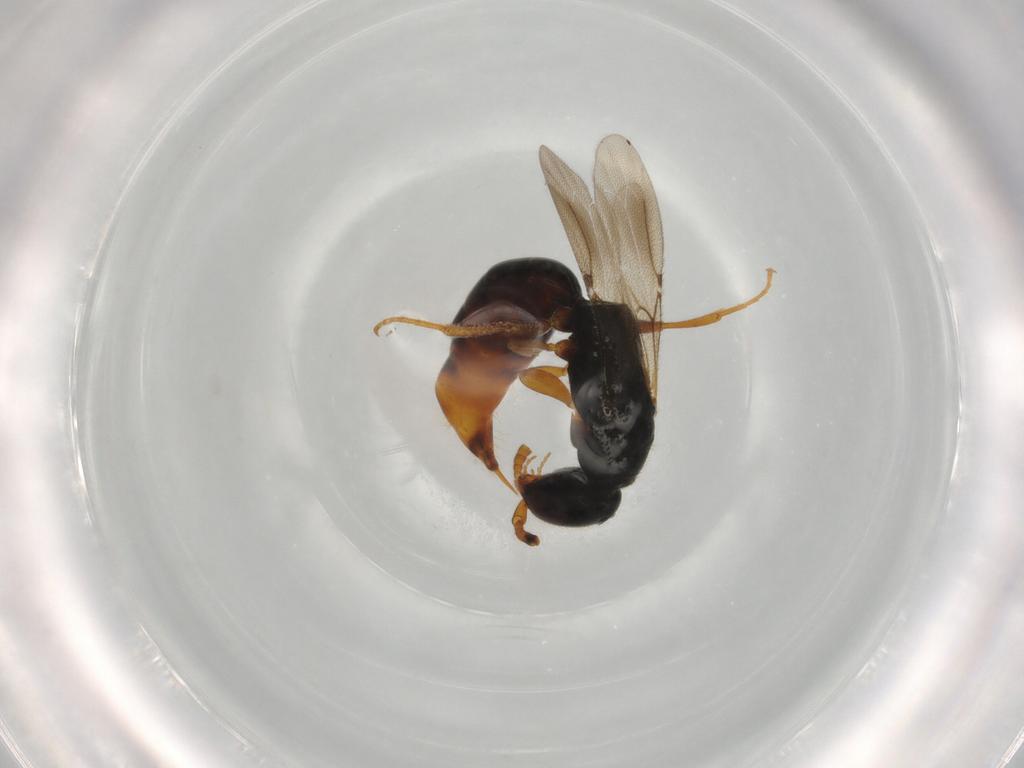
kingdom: Animalia
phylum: Arthropoda
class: Insecta
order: Hymenoptera
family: Bethylidae
